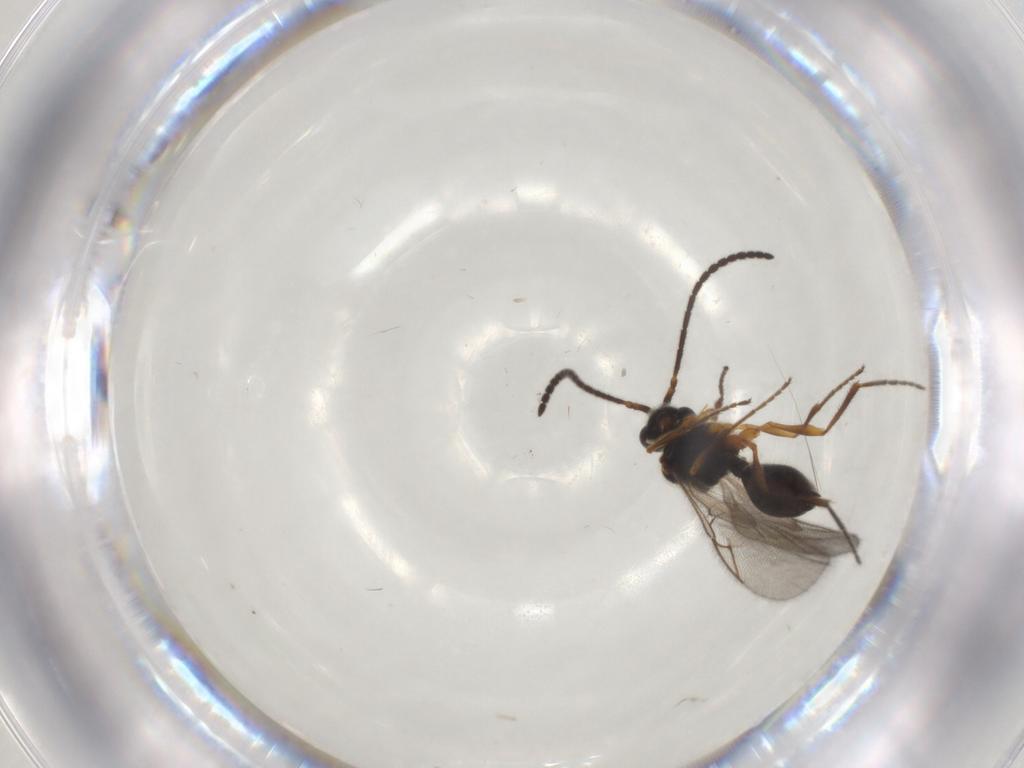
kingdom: Animalia
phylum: Arthropoda
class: Insecta
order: Hymenoptera
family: Diapriidae
